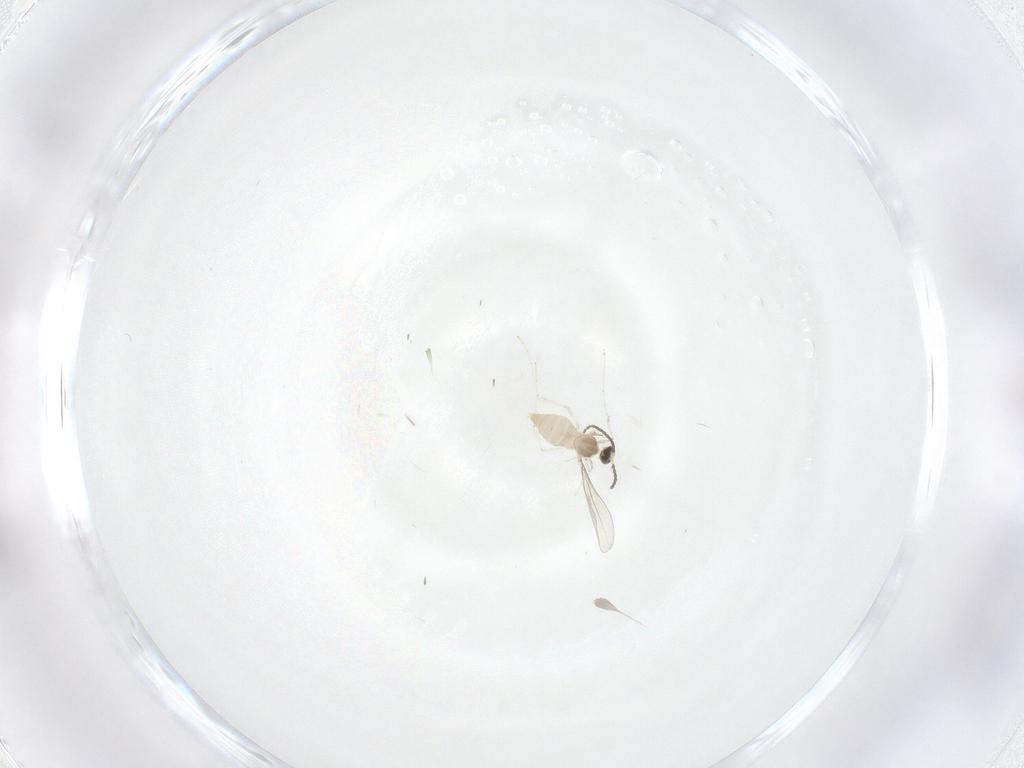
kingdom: Animalia
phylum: Arthropoda
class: Insecta
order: Diptera
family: Cecidomyiidae
